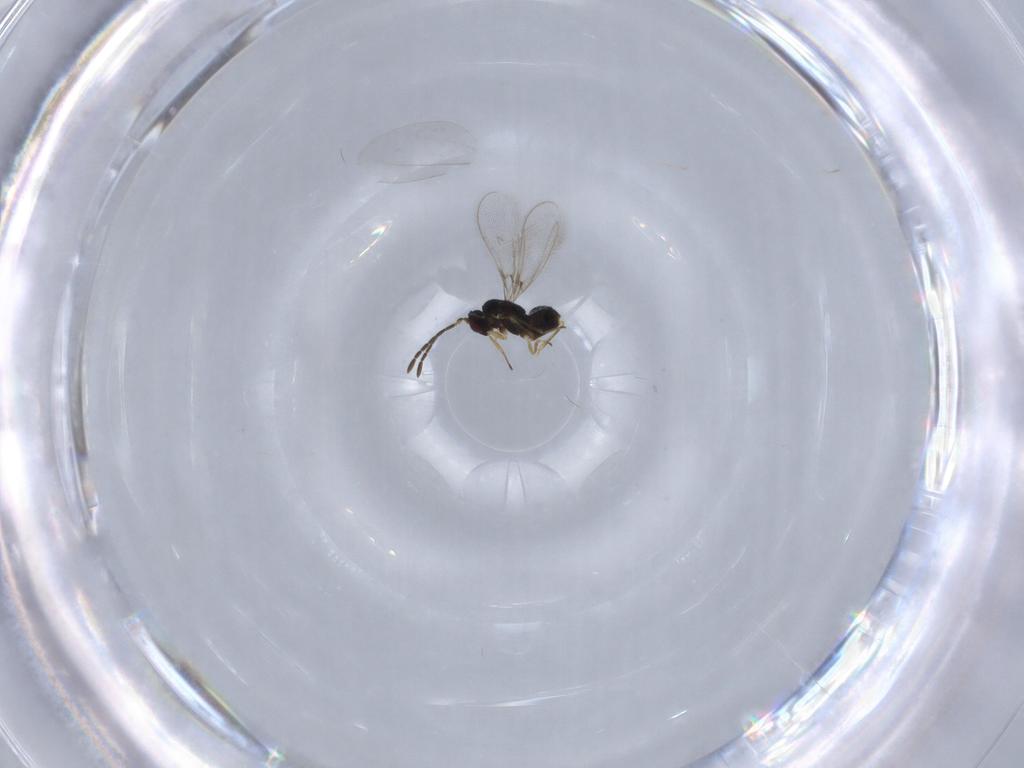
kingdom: Animalia
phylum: Arthropoda
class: Insecta
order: Hymenoptera
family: Mymaridae
